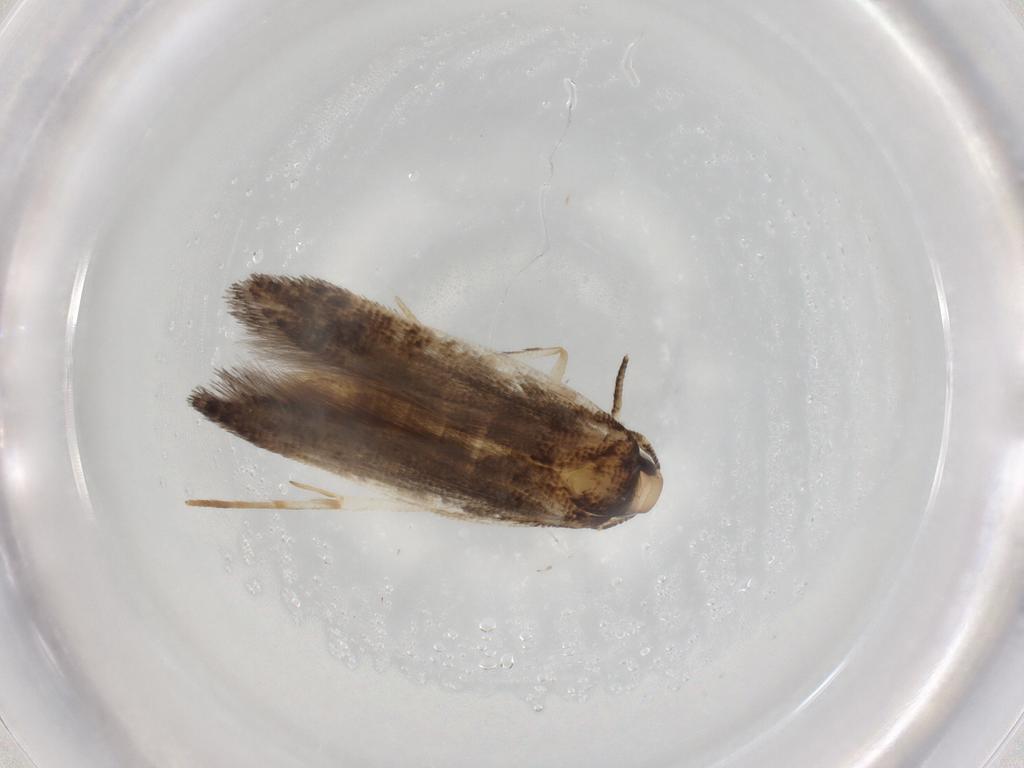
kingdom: Animalia
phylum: Arthropoda
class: Insecta
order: Lepidoptera
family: Cosmopterigidae
